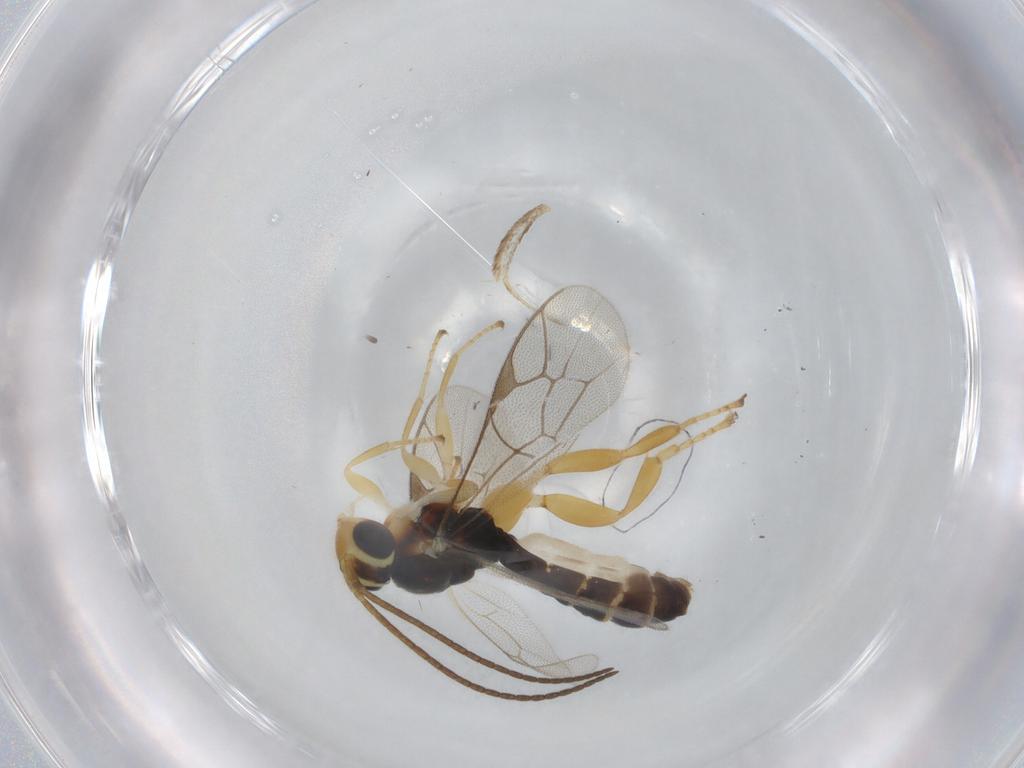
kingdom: Animalia
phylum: Arthropoda
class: Insecta
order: Hymenoptera
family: Ichneumonidae
